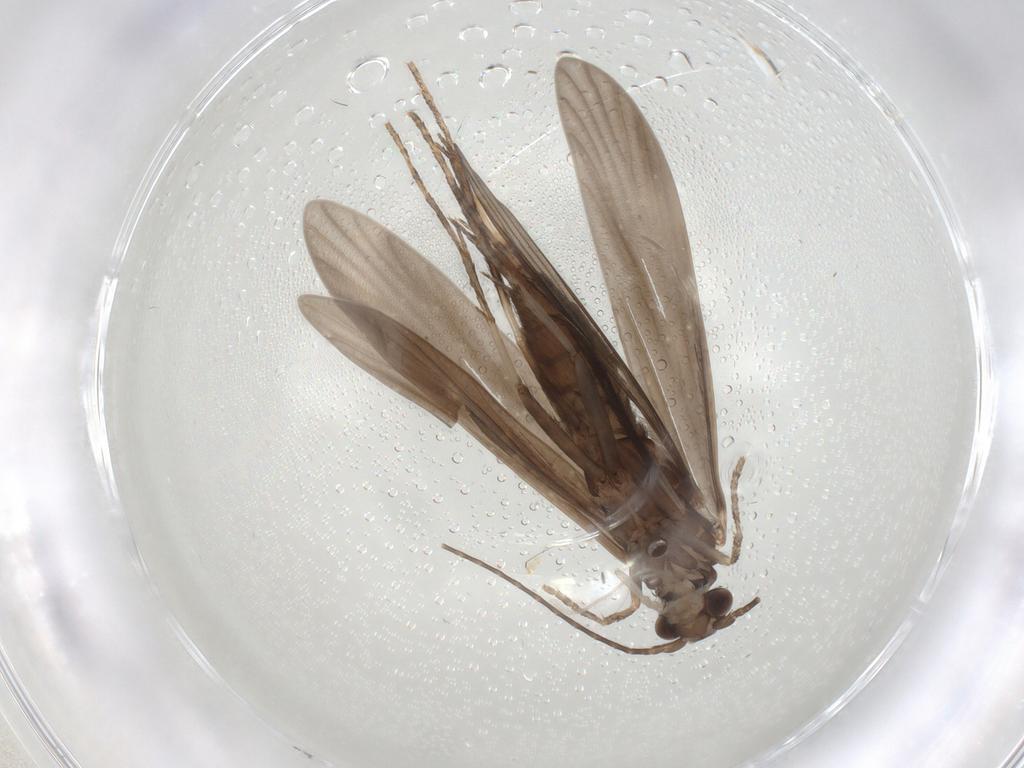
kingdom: Animalia
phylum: Arthropoda
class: Insecta
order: Trichoptera
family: Xiphocentronidae
